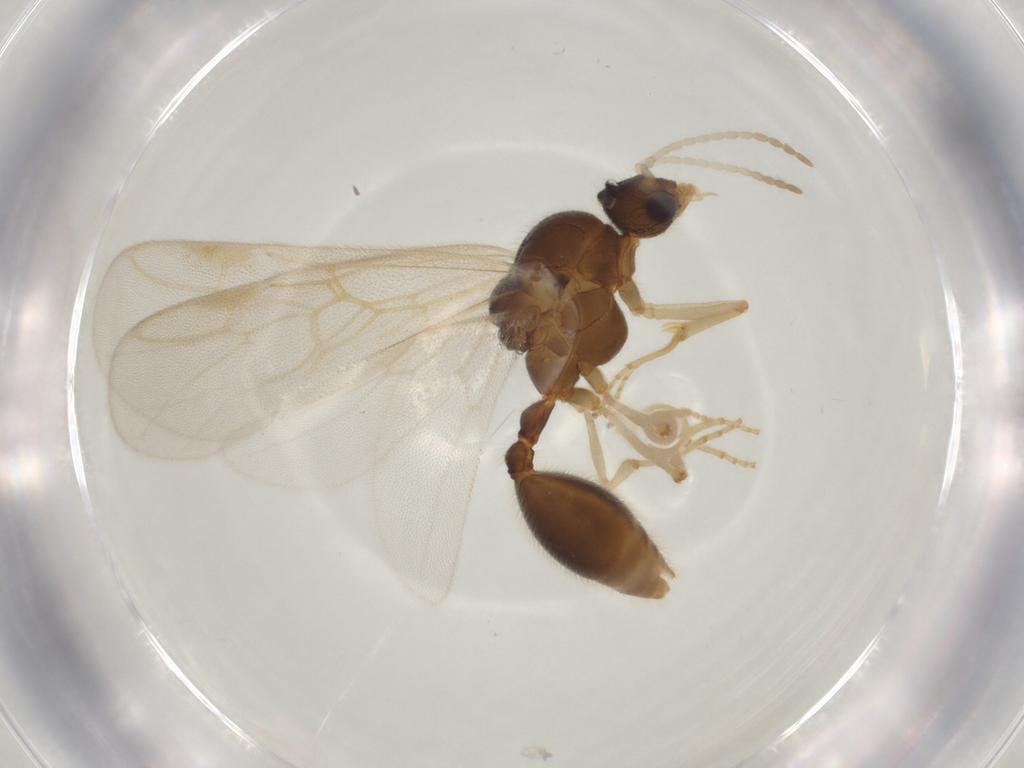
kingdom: Animalia
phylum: Arthropoda
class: Insecta
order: Hymenoptera
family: Formicidae
